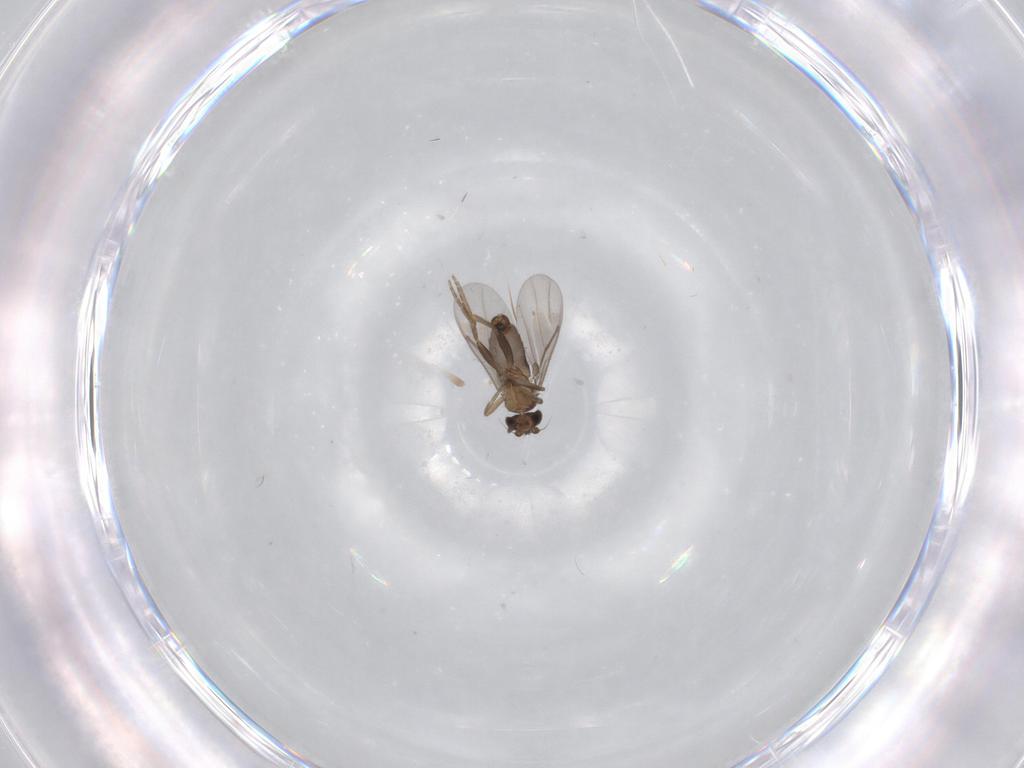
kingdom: Animalia
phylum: Arthropoda
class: Insecta
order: Diptera
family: Phoridae
